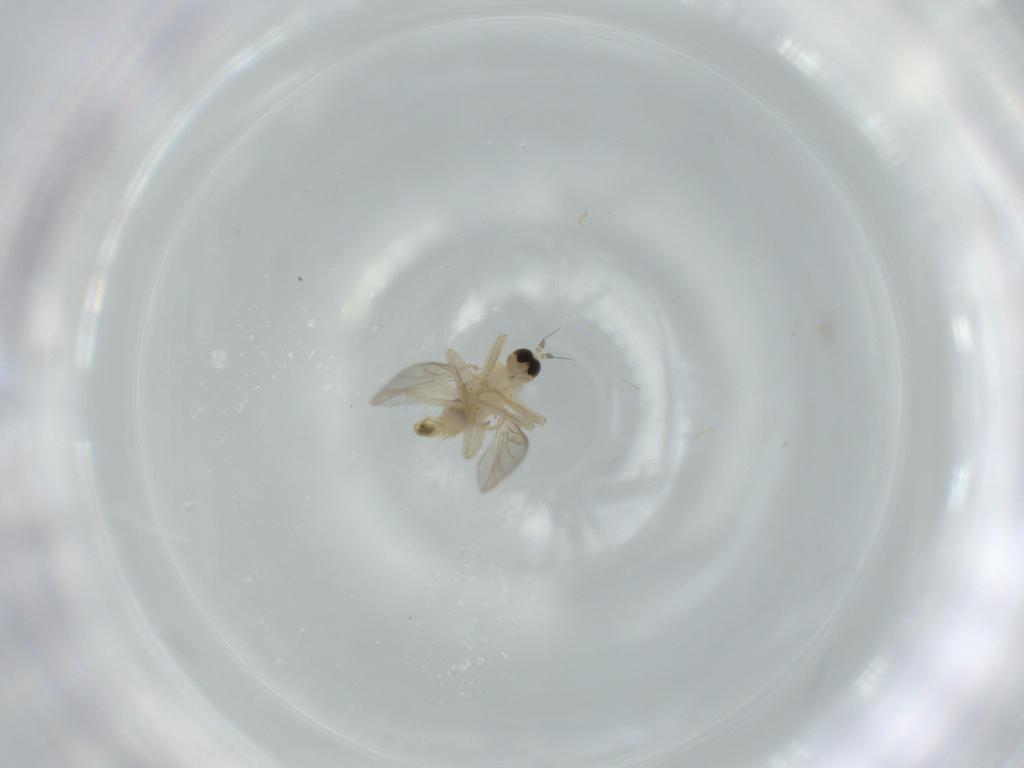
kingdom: Animalia
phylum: Arthropoda
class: Insecta
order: Diptera
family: Hybotidae
